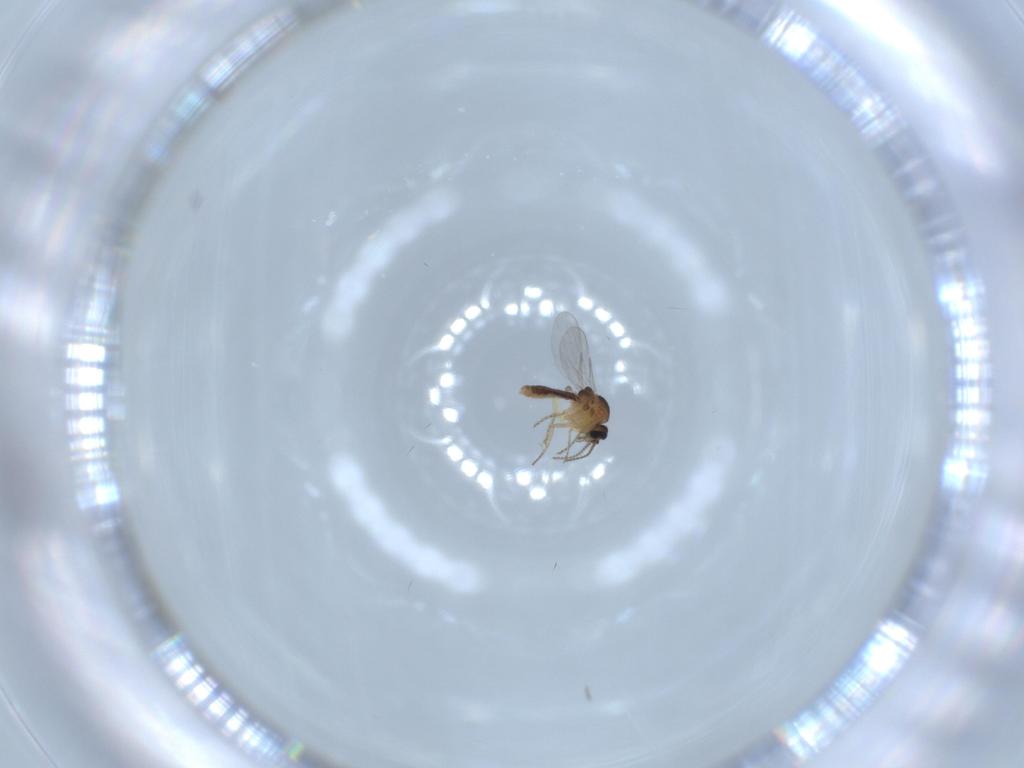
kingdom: Animalia
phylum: Arthropoda
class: Insecta
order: Diptera
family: Ceratopogonidae
